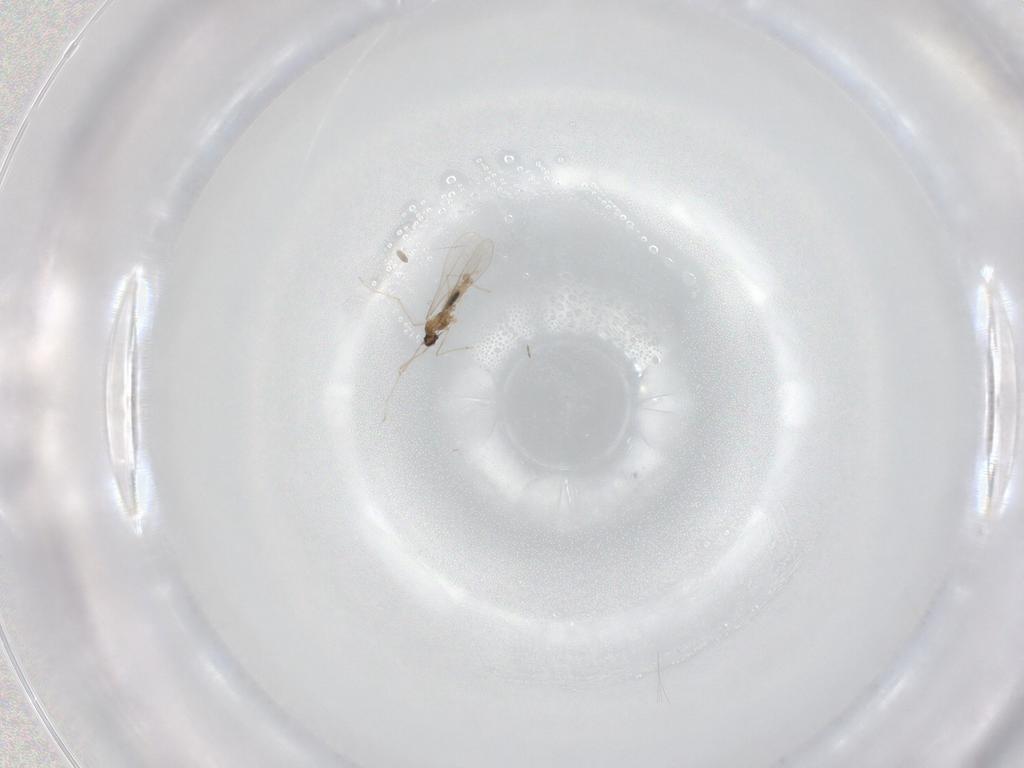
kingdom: Animalia
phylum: Arthropoda
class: Insecta
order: Diptera
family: Cecidomyiidae
